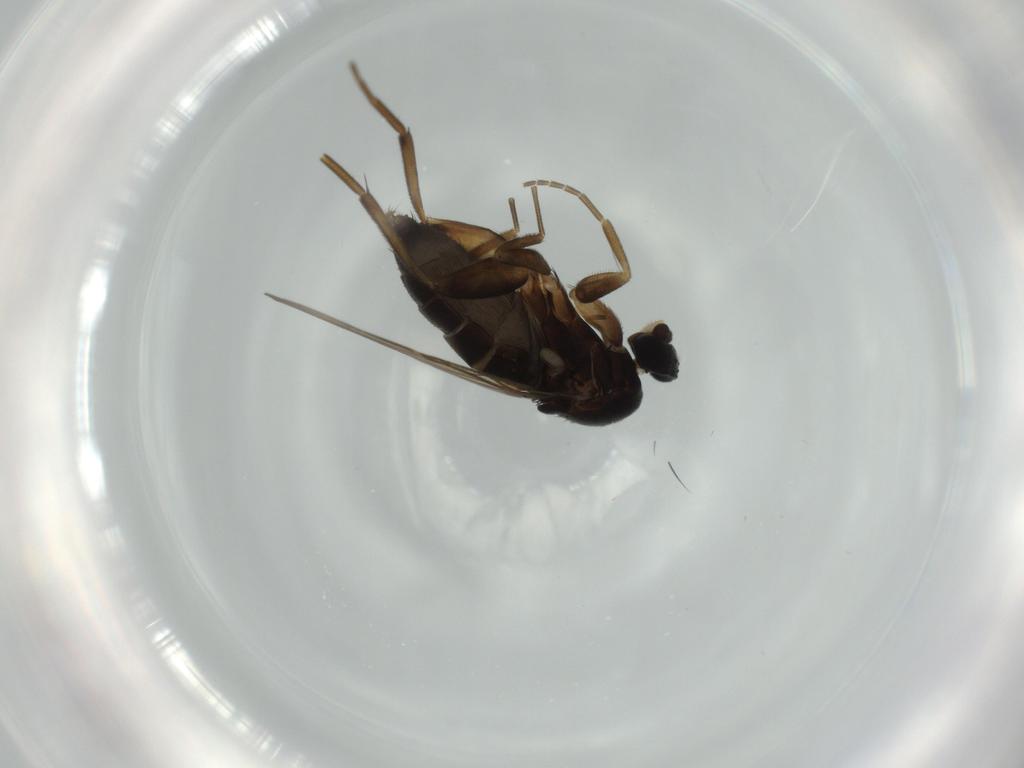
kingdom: Animalia
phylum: Arthropoda
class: Insecta
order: Diptera
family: Phoridae
